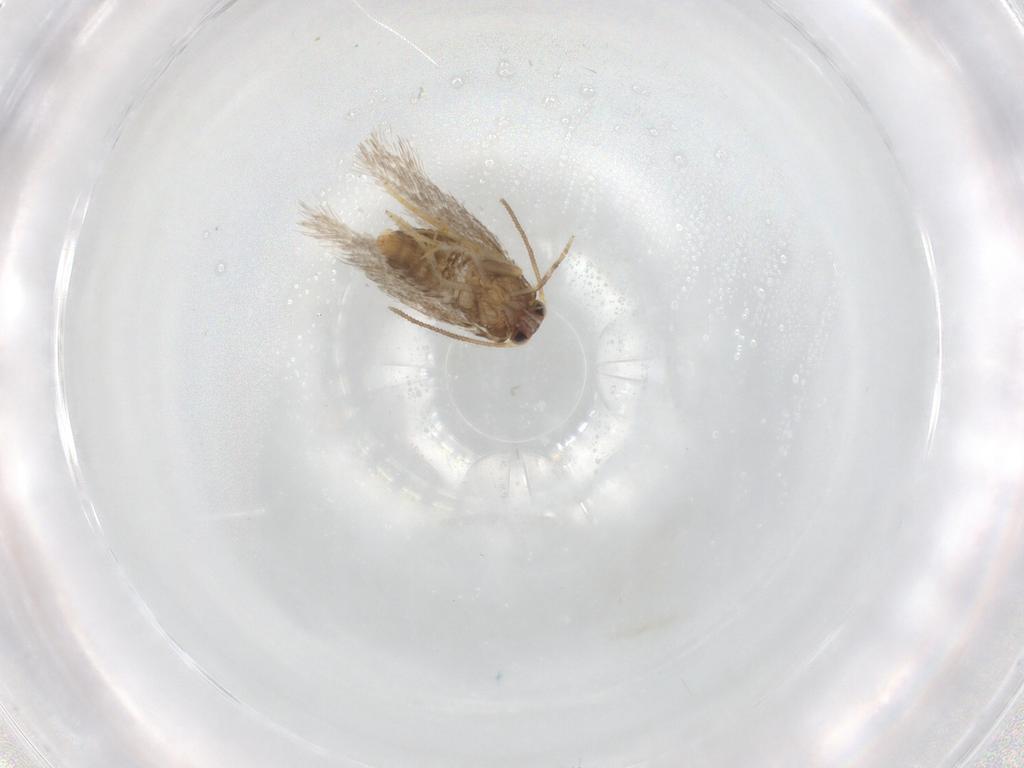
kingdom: Animalia
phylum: Arthropoda
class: Insecta
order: Lepidoptera
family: Nepticulidae
